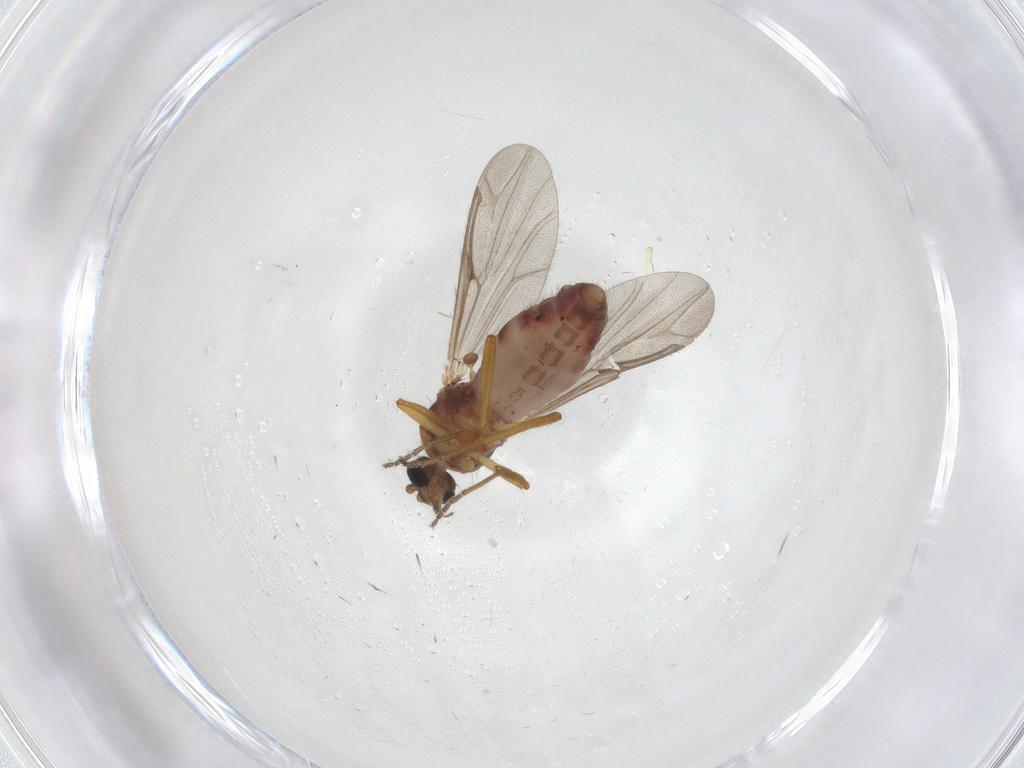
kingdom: Animalia
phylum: Arthropoda
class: Insecta
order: Diptera
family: Ceratopogonidae
